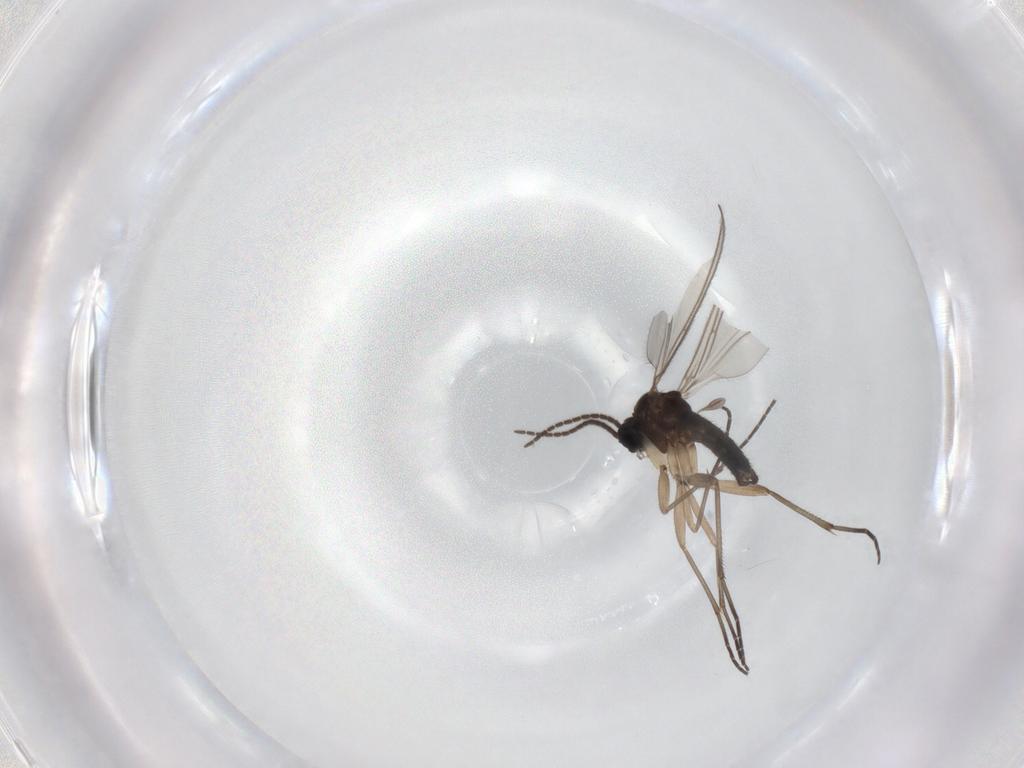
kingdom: Animalia
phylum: Arthropoda
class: Insecta
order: Diptera
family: Sciaridae
